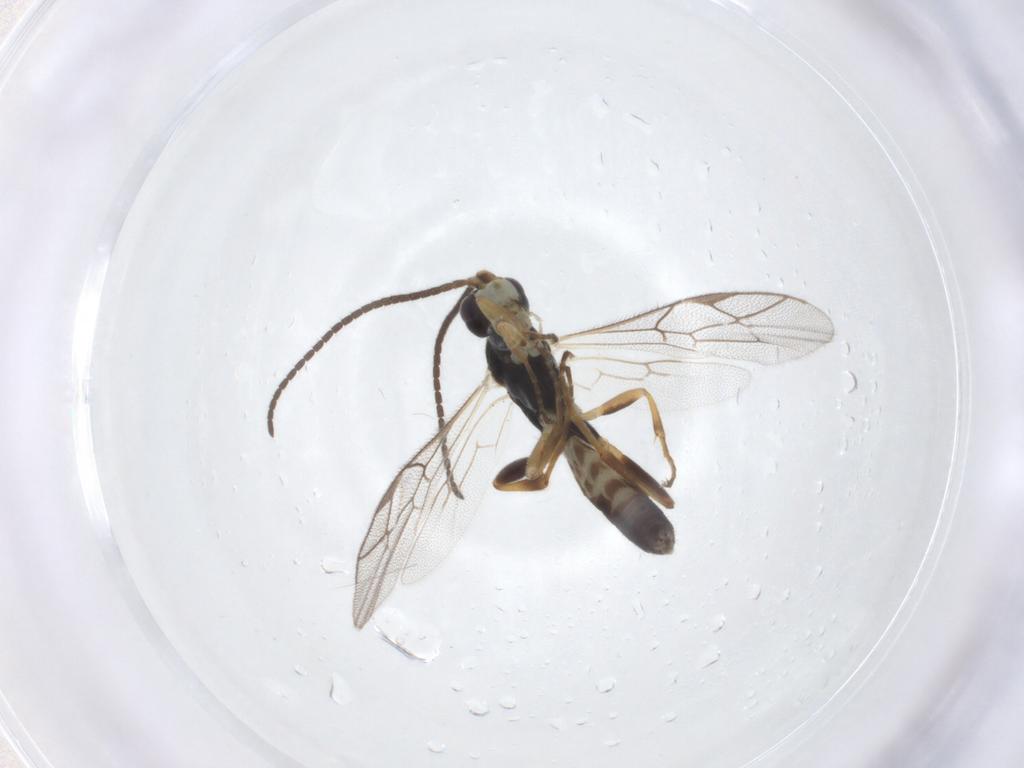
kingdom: Animalia
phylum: Arthropoda
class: Insecta
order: Hymenoptera
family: Ichneumonidae
